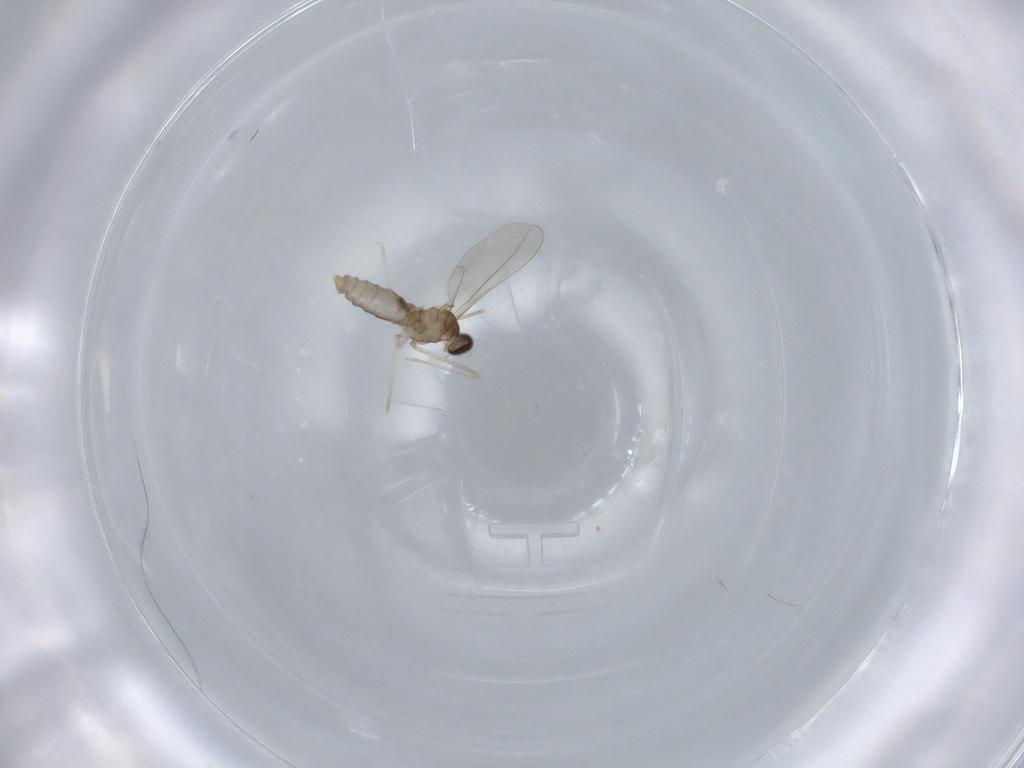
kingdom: Animalia
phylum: Arthropoda
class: Insecta
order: Diptera
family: Cecidomyiidae
